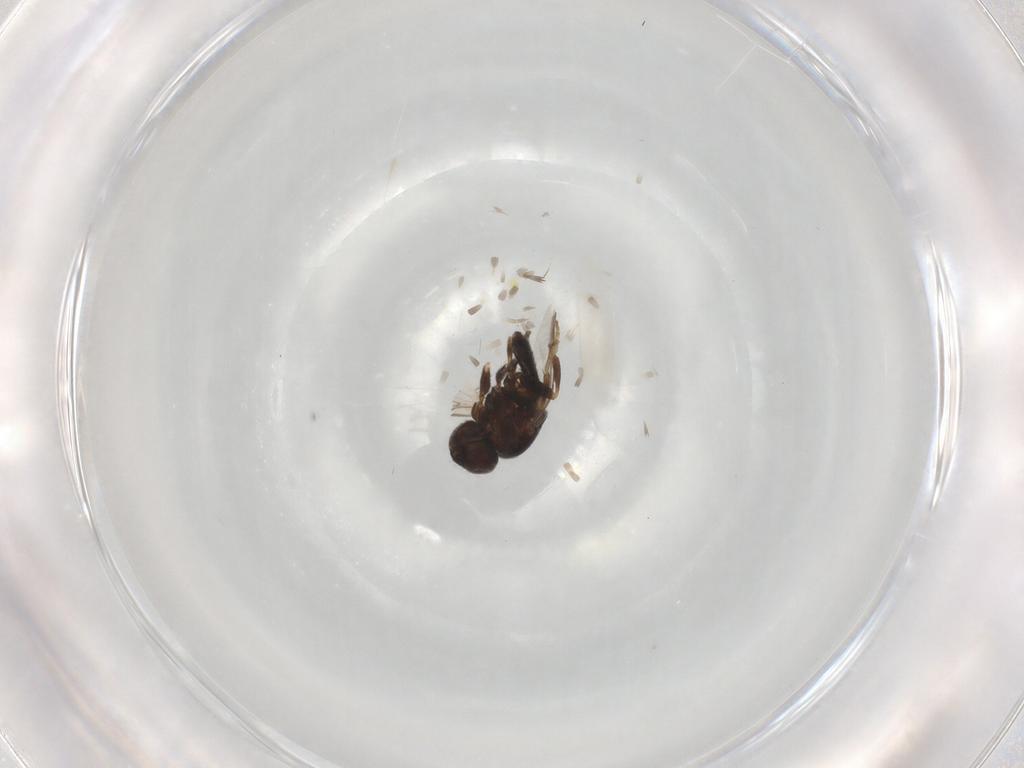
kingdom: Animalia
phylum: Arthropoda
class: Insecta
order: Diptera
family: Chloropidae
